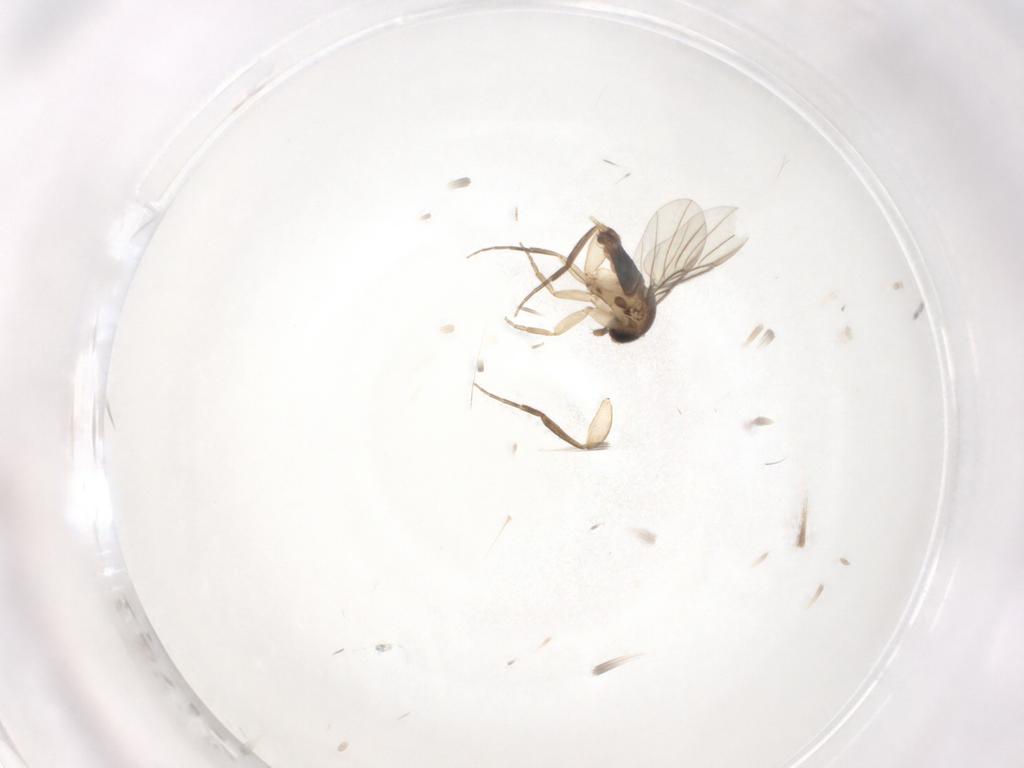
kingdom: Animalia
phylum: Arthropoda
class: Insecta
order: Diptera
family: Phoridae
